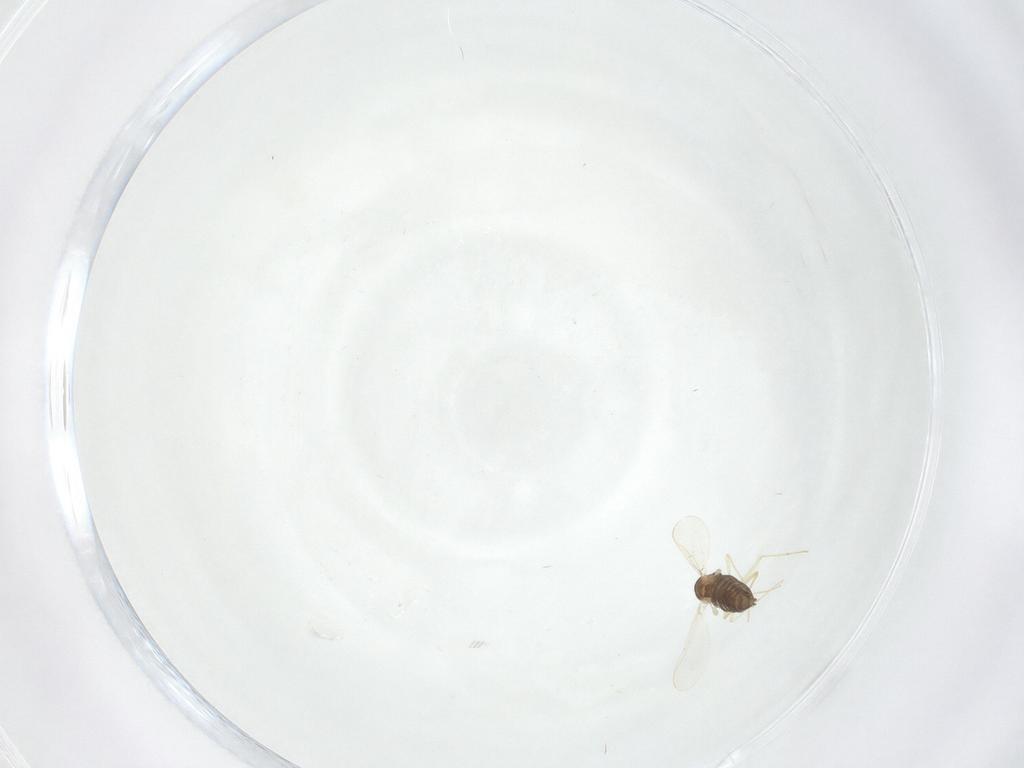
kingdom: Animalia
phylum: Arthropoda
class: Insecta
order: Diptera
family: Chironomidae
